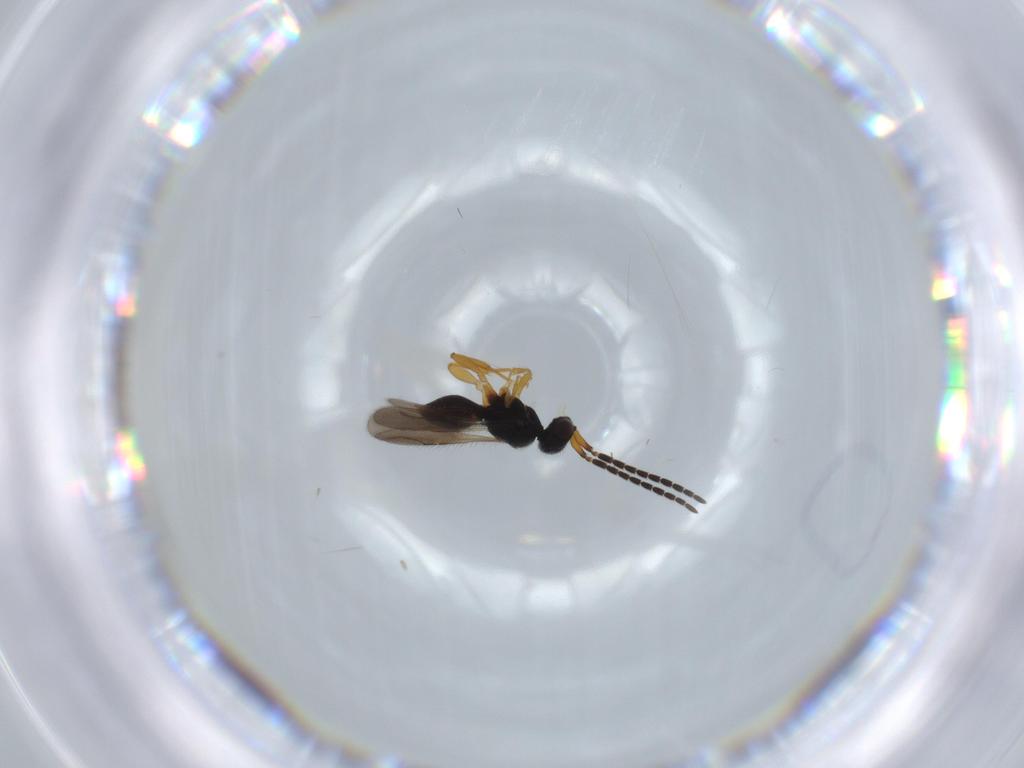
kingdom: Animalia
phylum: Arthropoda
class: Insecta
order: Hymenoptera
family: Ceraphronidae
